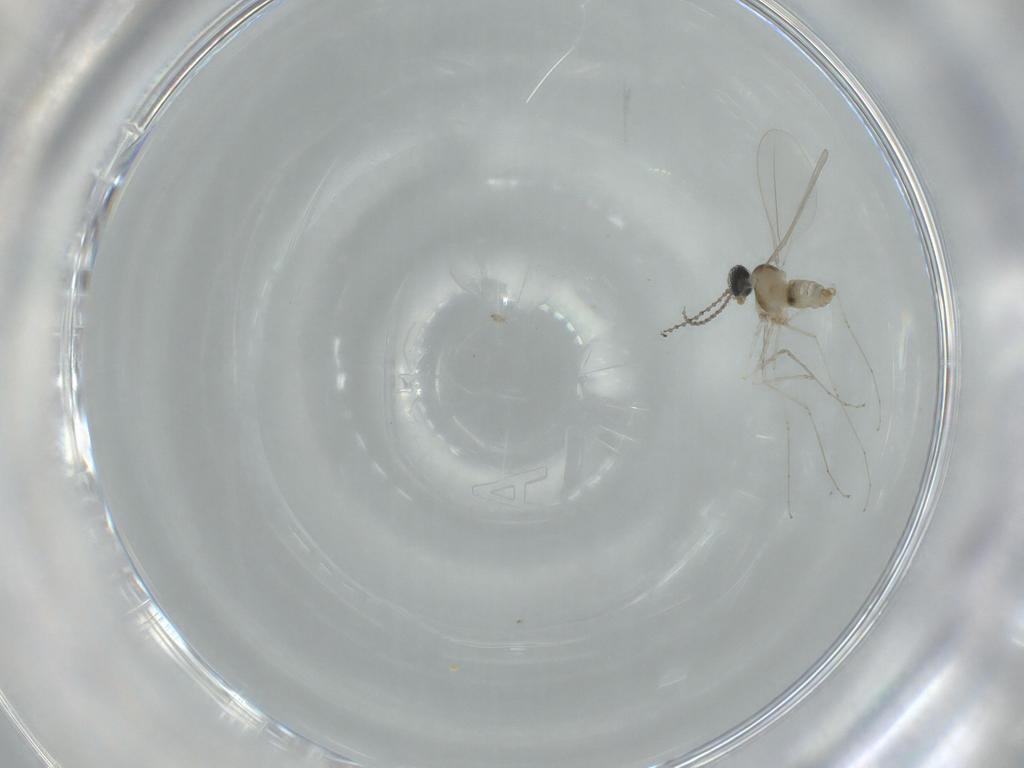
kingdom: Animalia
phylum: Arthropoda
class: Insecta
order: Diptera
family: Cecidomyiidae
